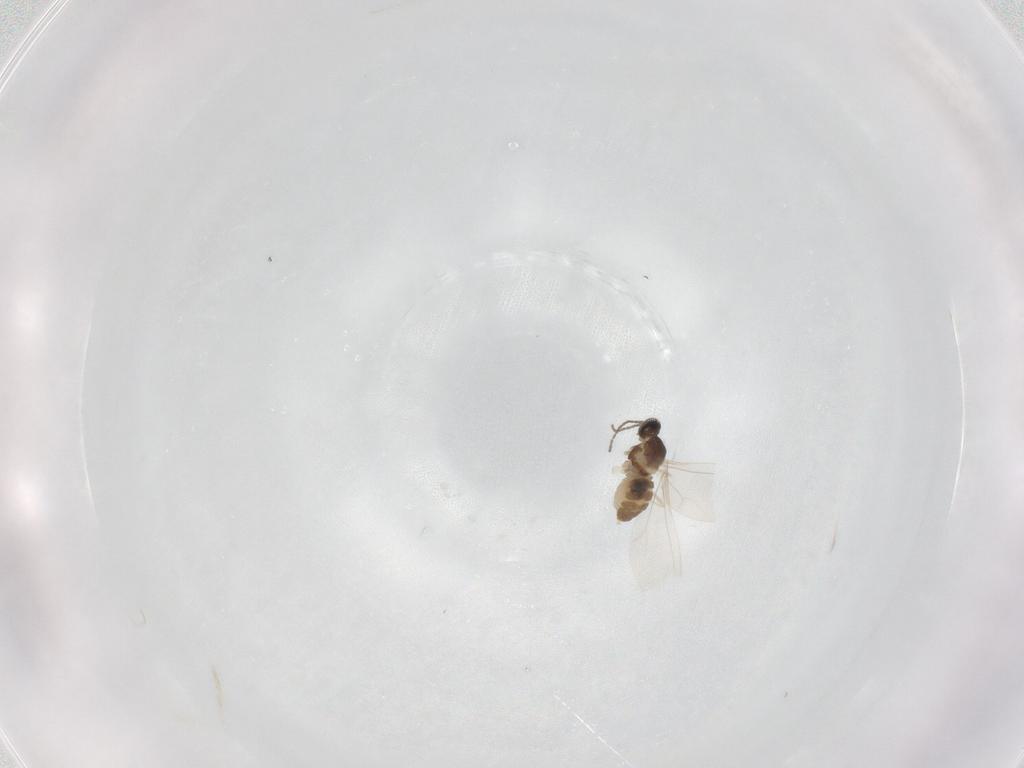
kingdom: Animalia
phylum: Arthropoda
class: Insecta
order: Diptera
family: Cecidomyiidae
